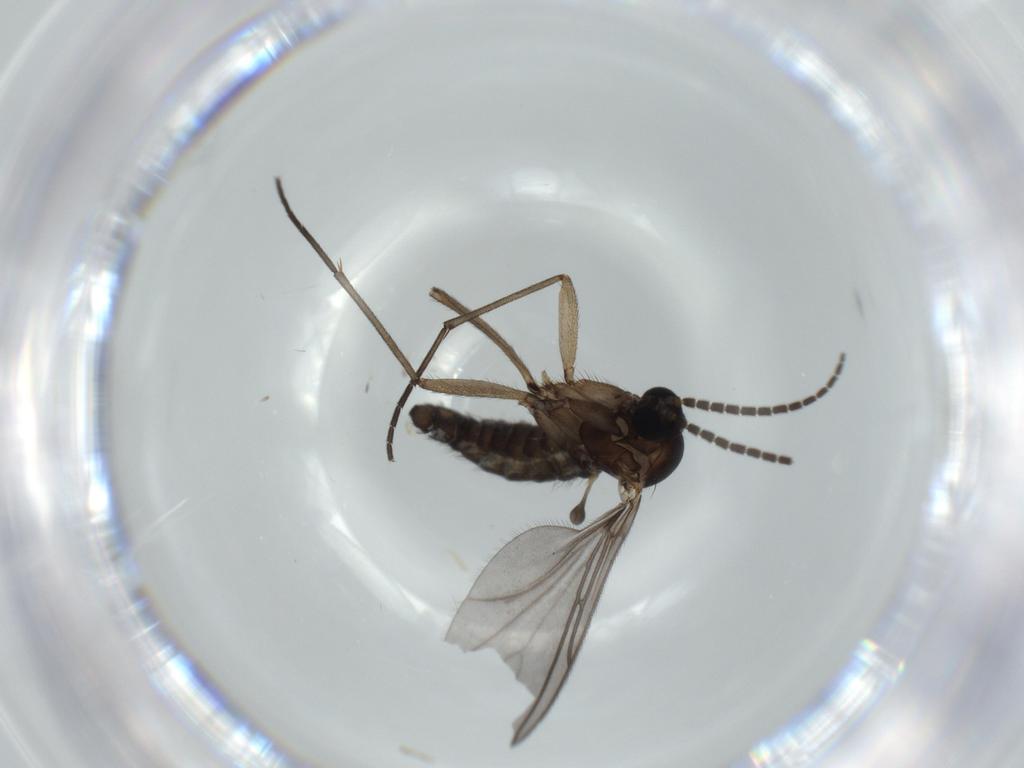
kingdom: Animalia
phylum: Arthropoda
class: Insecta
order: Diptera
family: Sciaridae
